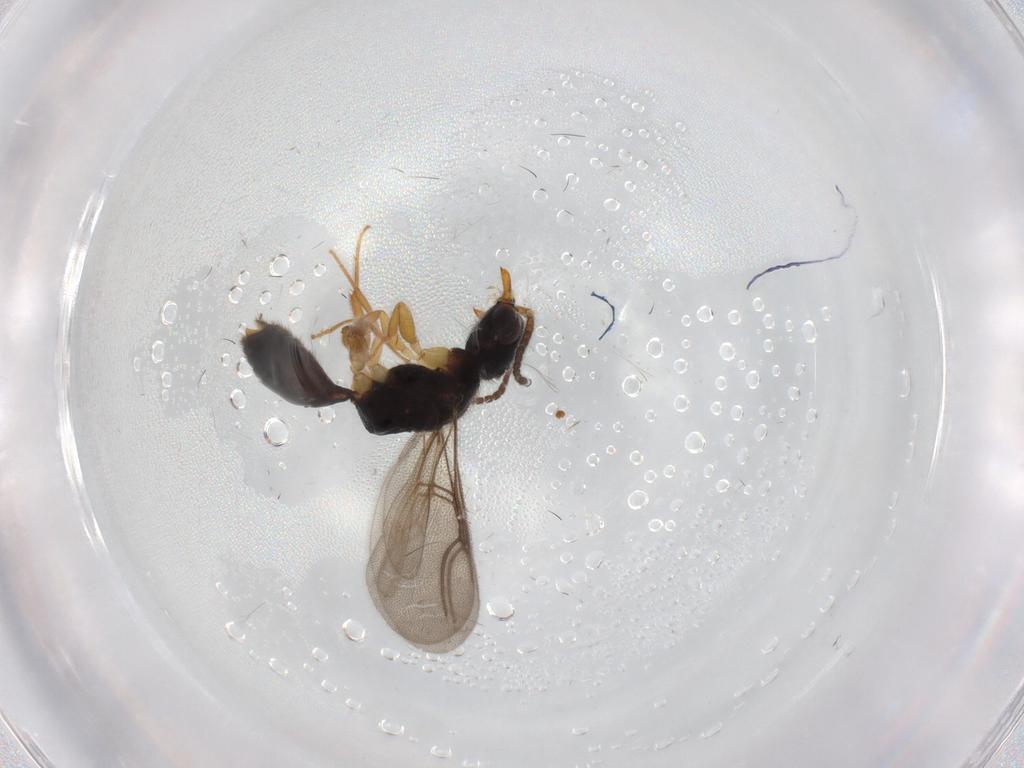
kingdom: Animalia
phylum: Arthropoda
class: Insecta
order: Hymenoptera
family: Bethylidae
